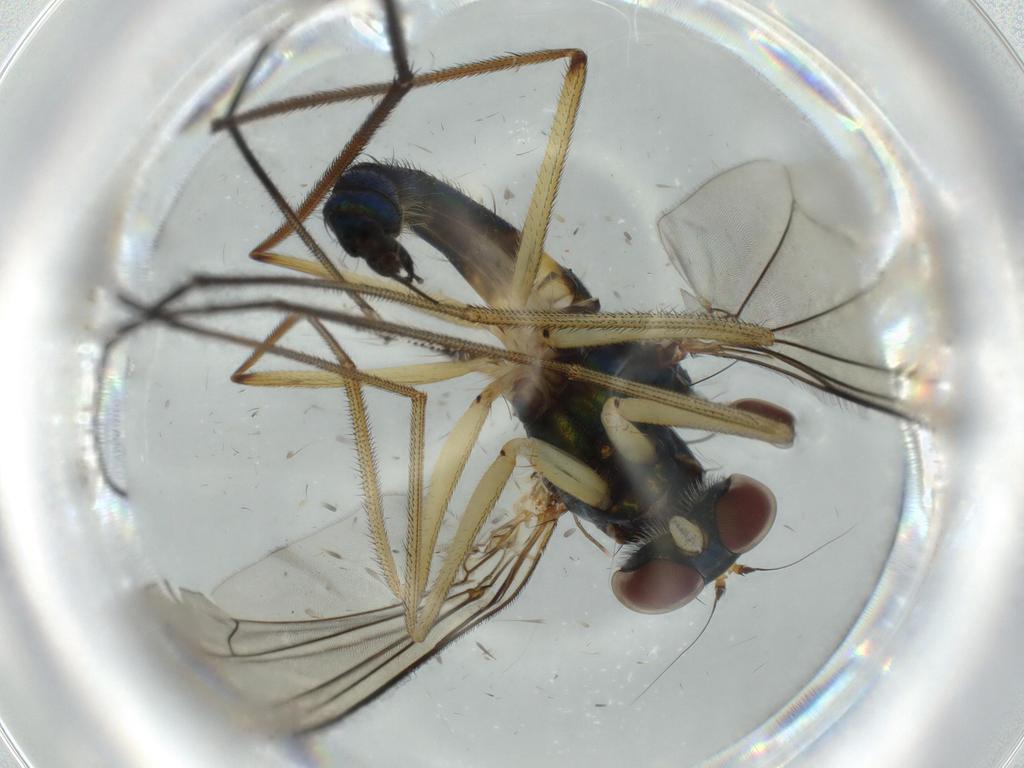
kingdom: Animalia
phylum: Arthropoda
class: Insecta
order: Diptera
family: Dolichopodidae
